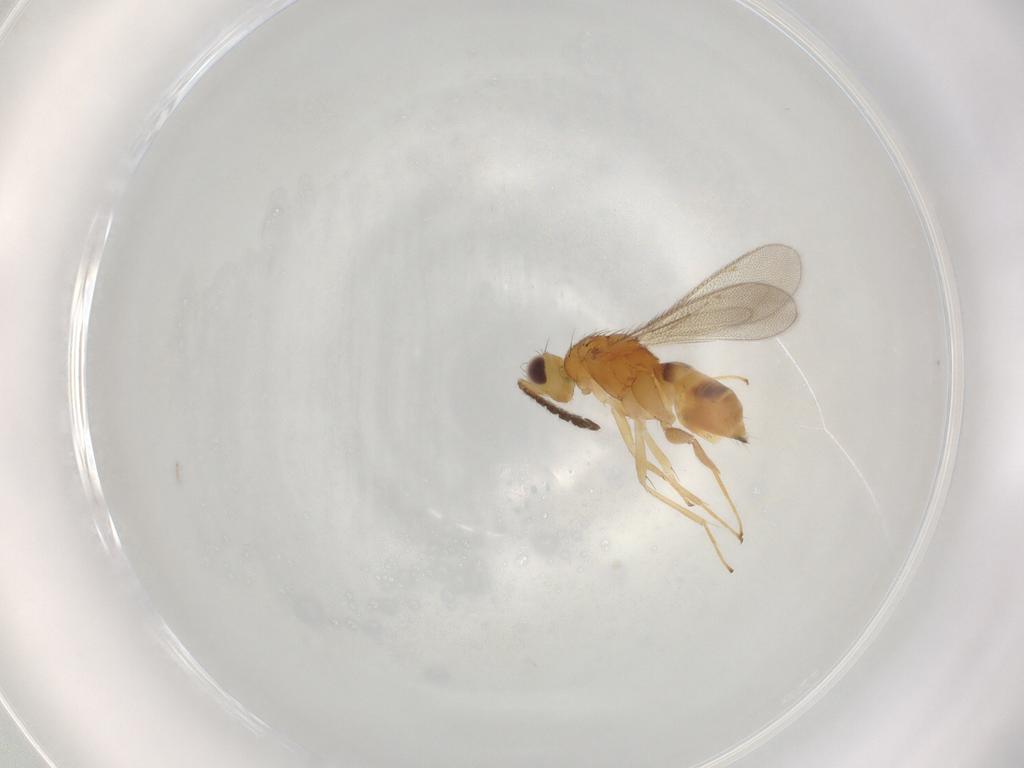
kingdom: Animalia
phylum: Arthropoda
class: Insecta
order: Hymenoptera
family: Eulophidae
